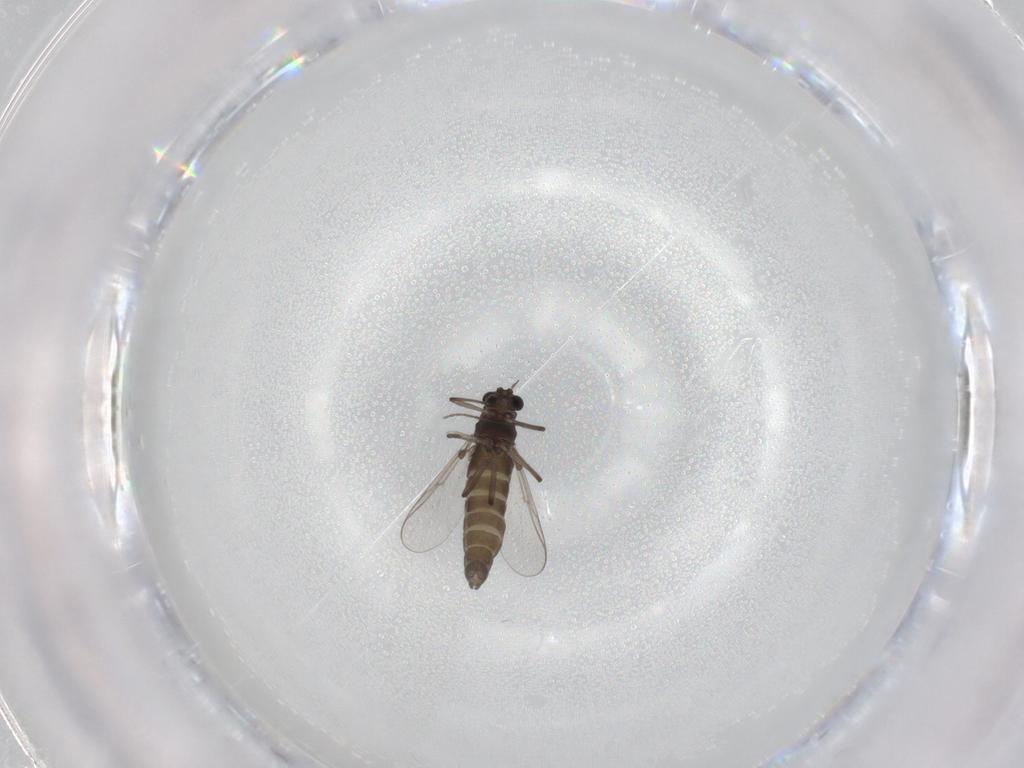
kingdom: Animalia
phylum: Arthropoda
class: Insecta
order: Diptera
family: Chironomidae
